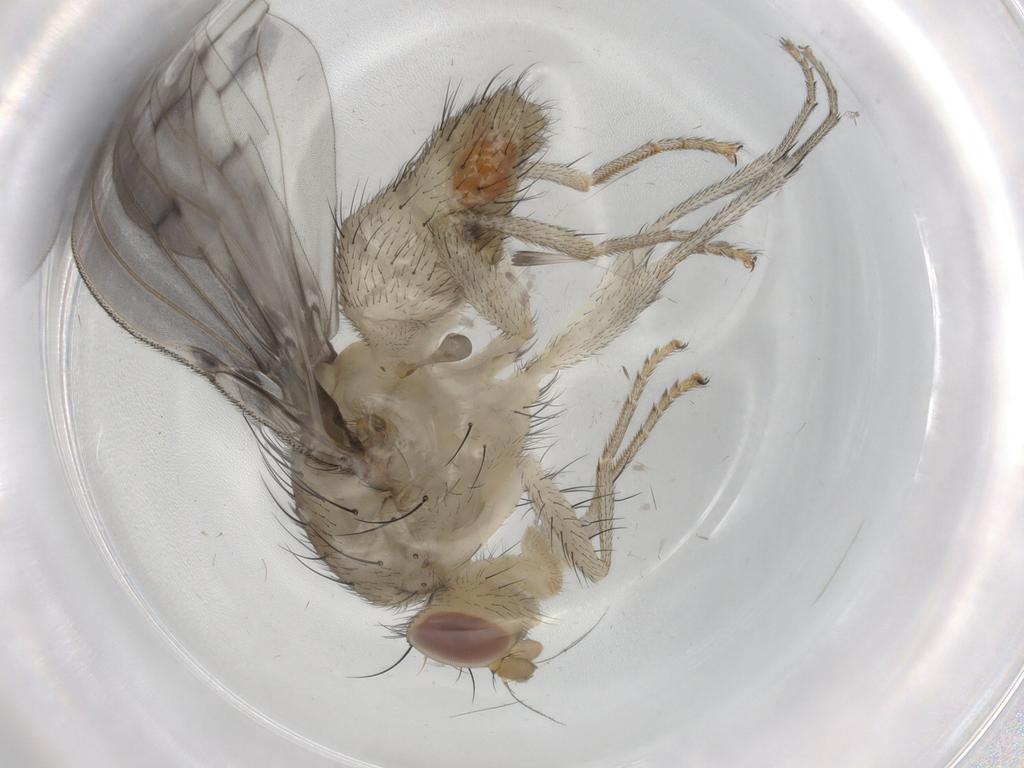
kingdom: Animalia
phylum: Arthropoda
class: Insecta
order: Diptera
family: Chironomidae
